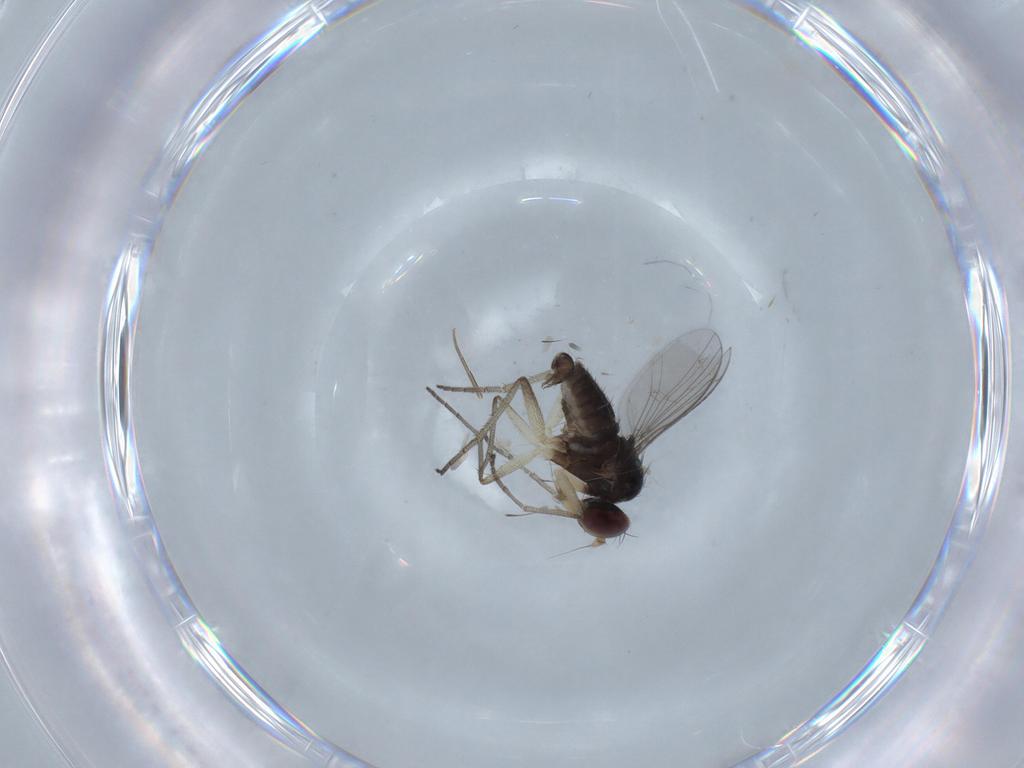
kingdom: Animalia
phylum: Arthropoda
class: Insecta
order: Diptera
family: Dolichopodidae
